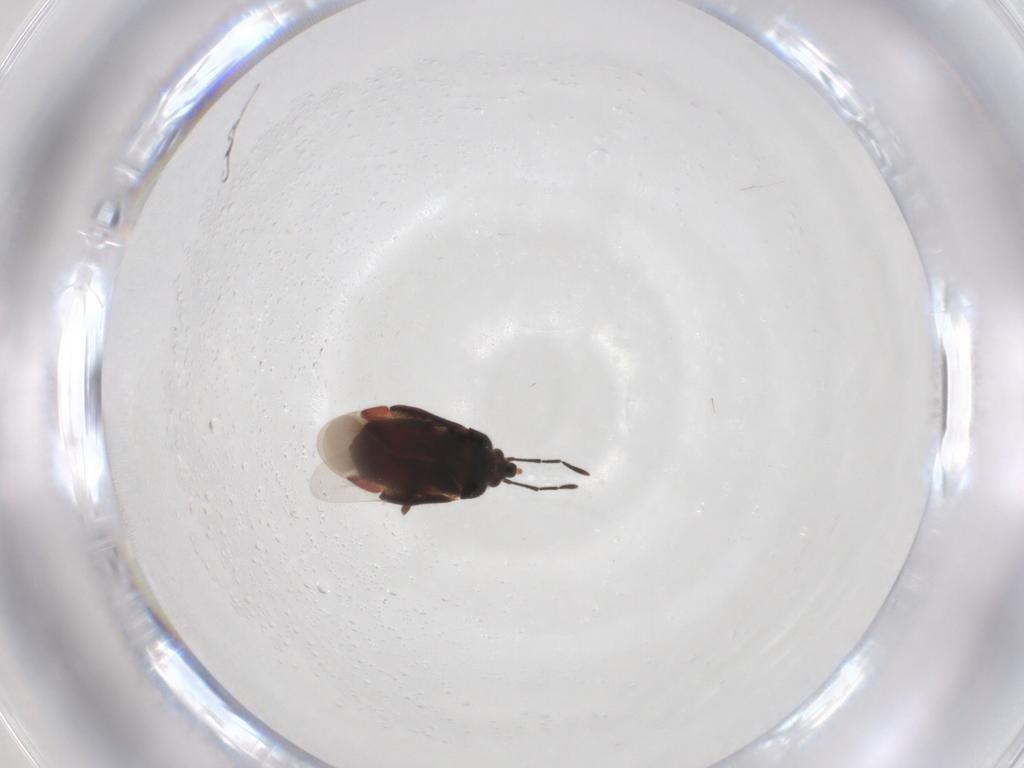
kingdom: Animalia
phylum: Arthropoda
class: Insecta
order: Hemiptera
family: Microphysidae
